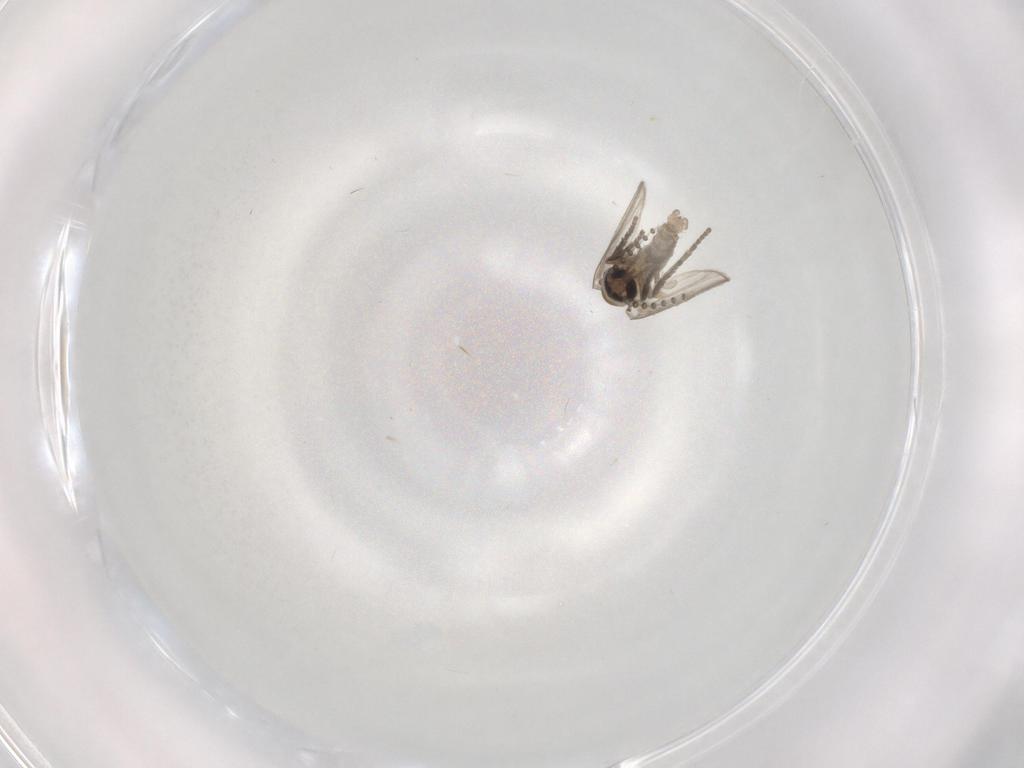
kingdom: Animalia
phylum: Arthropoda
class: Insecta
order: Diptera
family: Psychodidae
